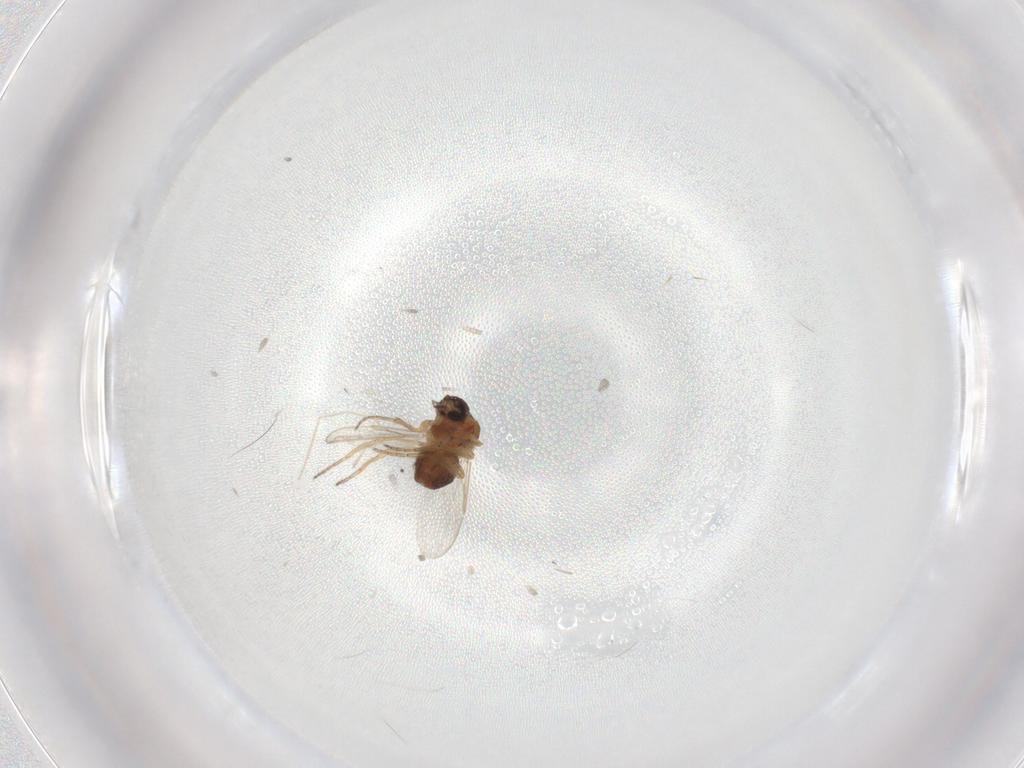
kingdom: Animalia
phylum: Arthropoda
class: Insecta
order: Diptera
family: Ceratopogonidae
